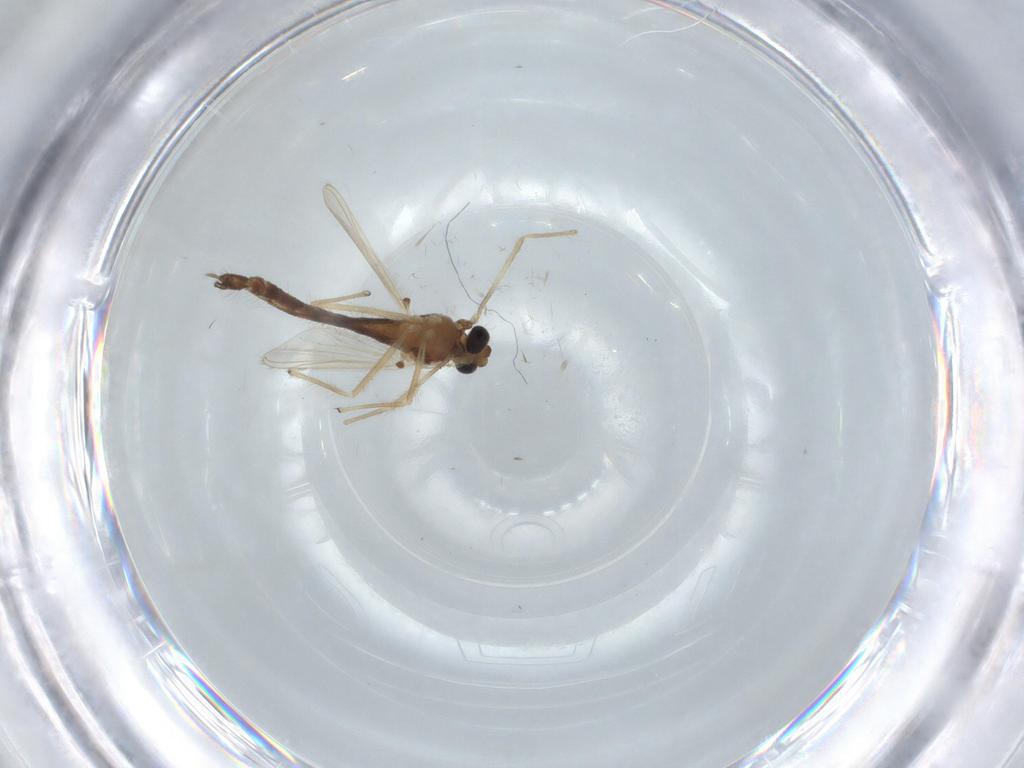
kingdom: Animalia
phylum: Arthropoda
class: Insecta
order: Diptera
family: Chironomidae
